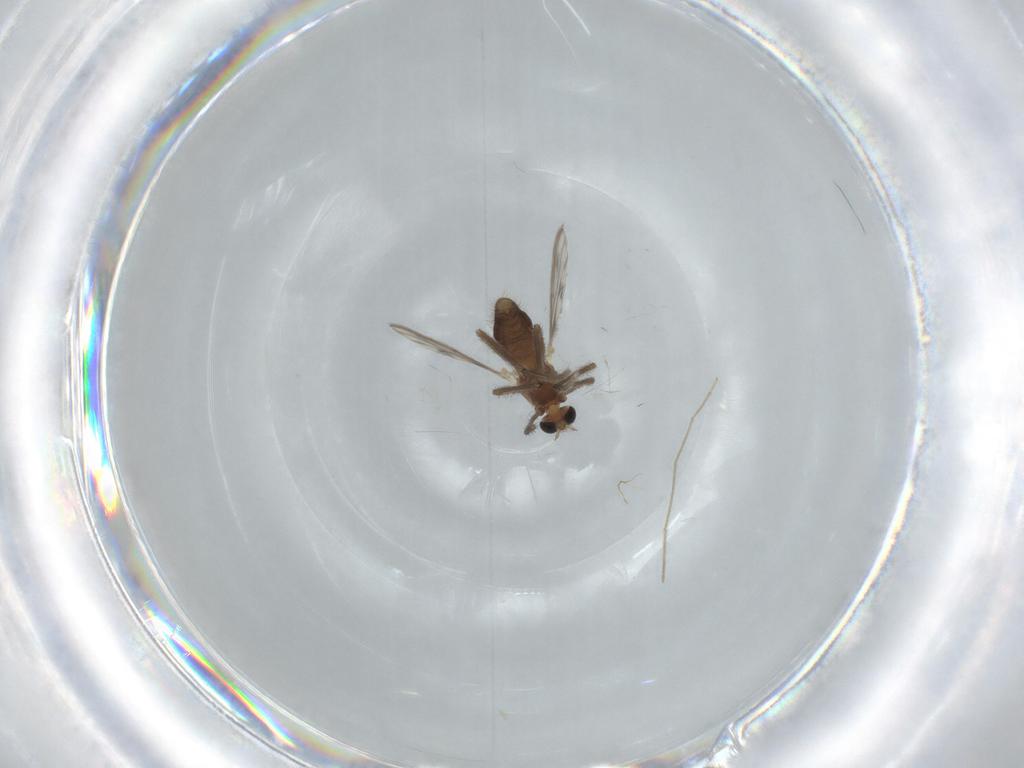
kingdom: Animalia
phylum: Arthropoda
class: Insecta
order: Diptera
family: Chironomidae
